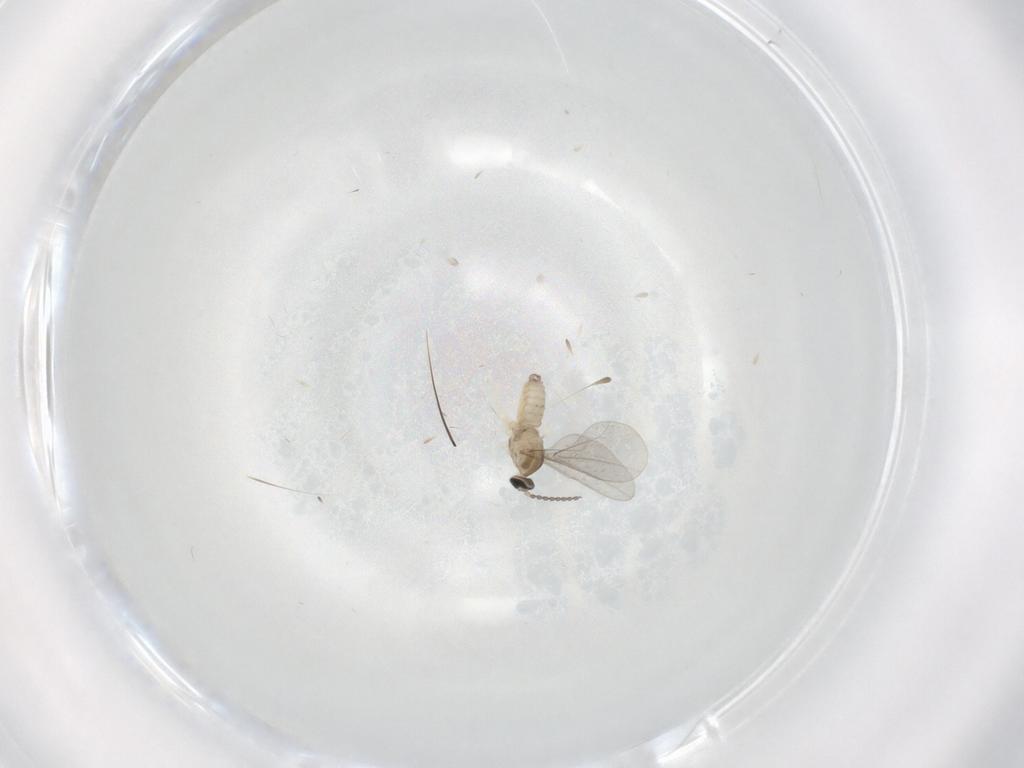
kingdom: Animalia
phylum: Arthropoda
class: Insecta
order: Diptera
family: Cecidomyiidae
